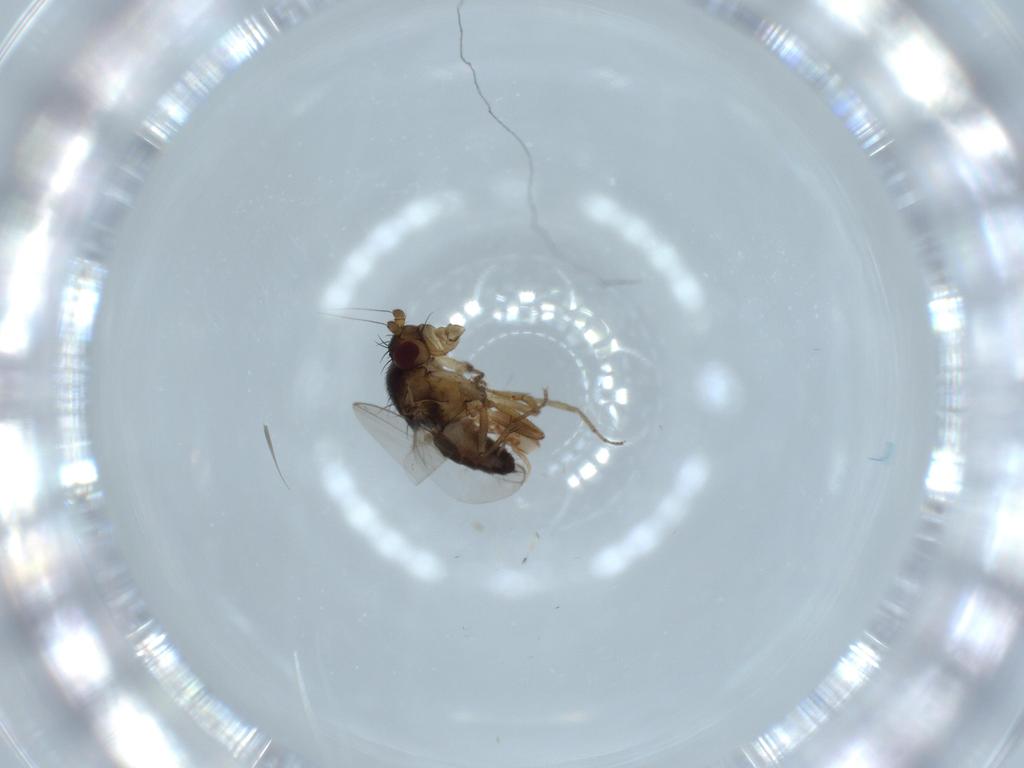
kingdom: Animalia
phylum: Arthropoda
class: Insecta
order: Diptera
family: Sphaeroceridae
